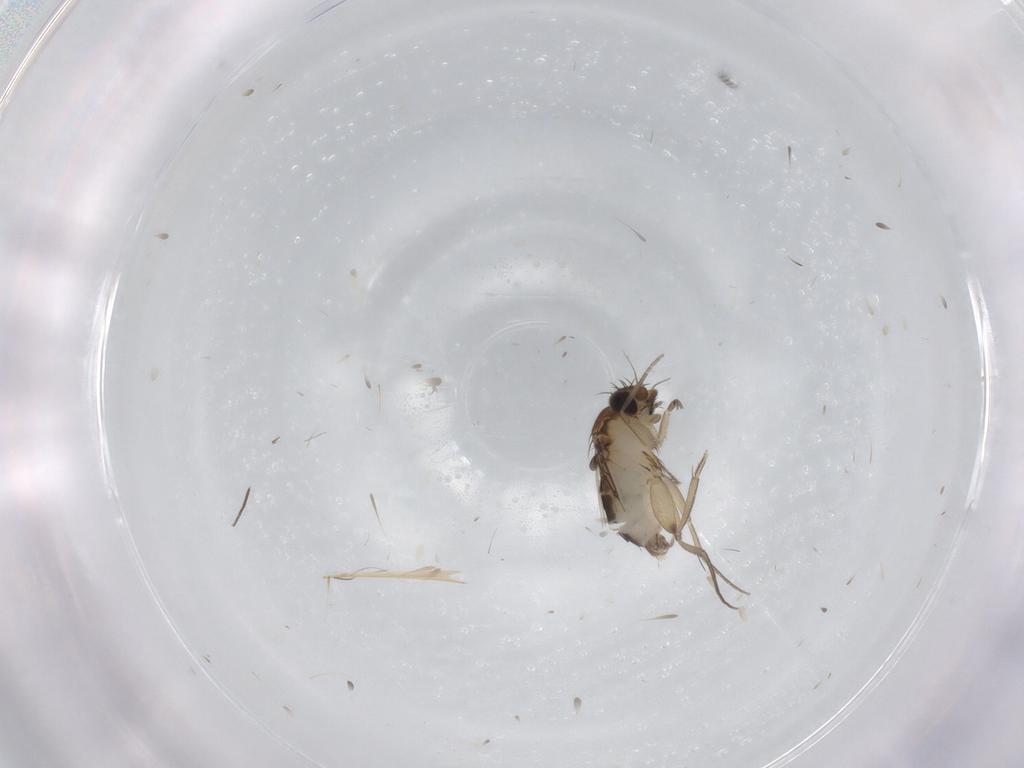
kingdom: Animalia
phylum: Arthropoda
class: Insecta
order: Diptera
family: Phoridae
